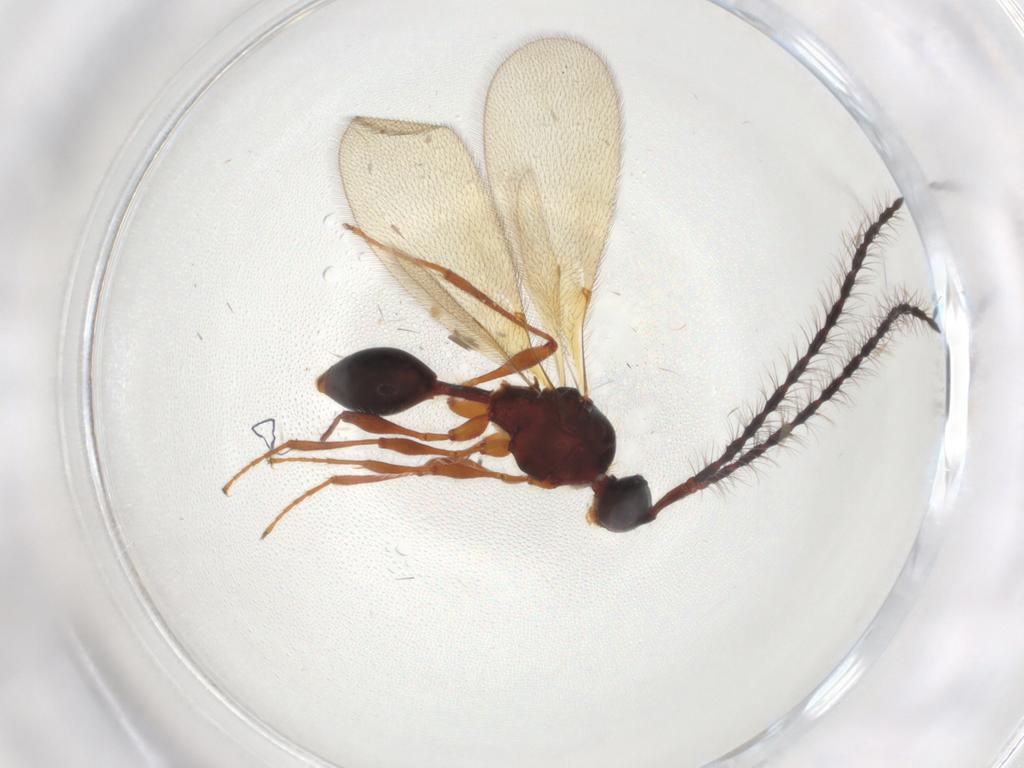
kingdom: Animalia
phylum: Arthropoda
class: Insecta
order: Hymenoptera
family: Diapriidae
